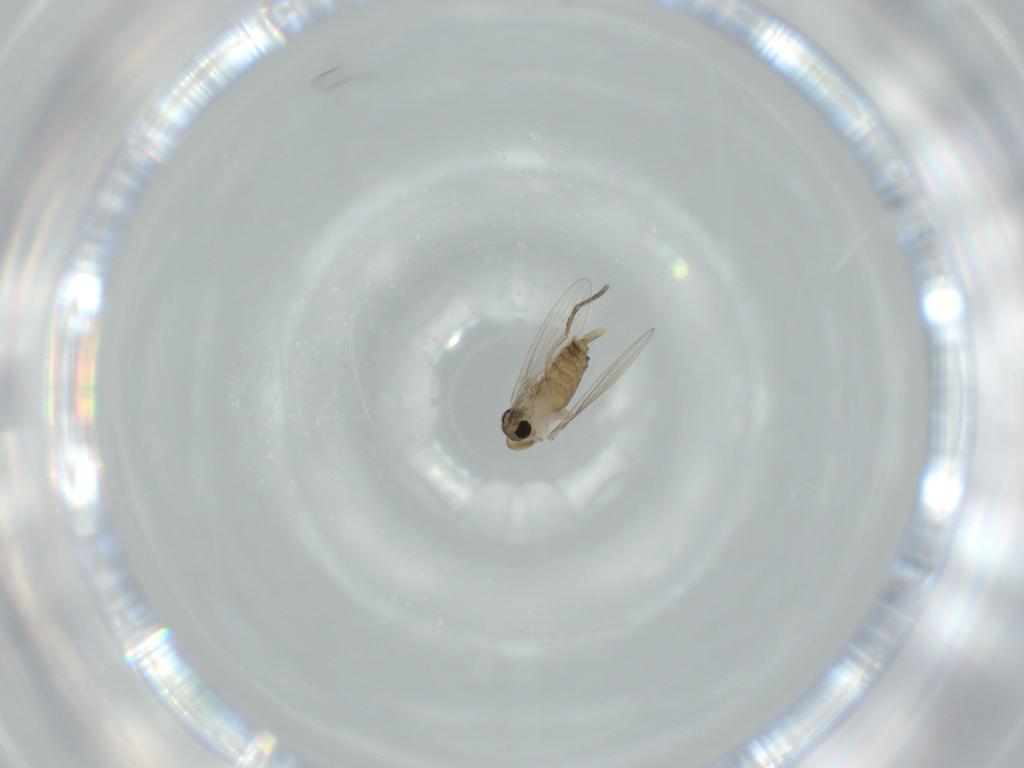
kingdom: Animalia
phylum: Arthropoda
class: Insecta
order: Diptera
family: Psychodidae
